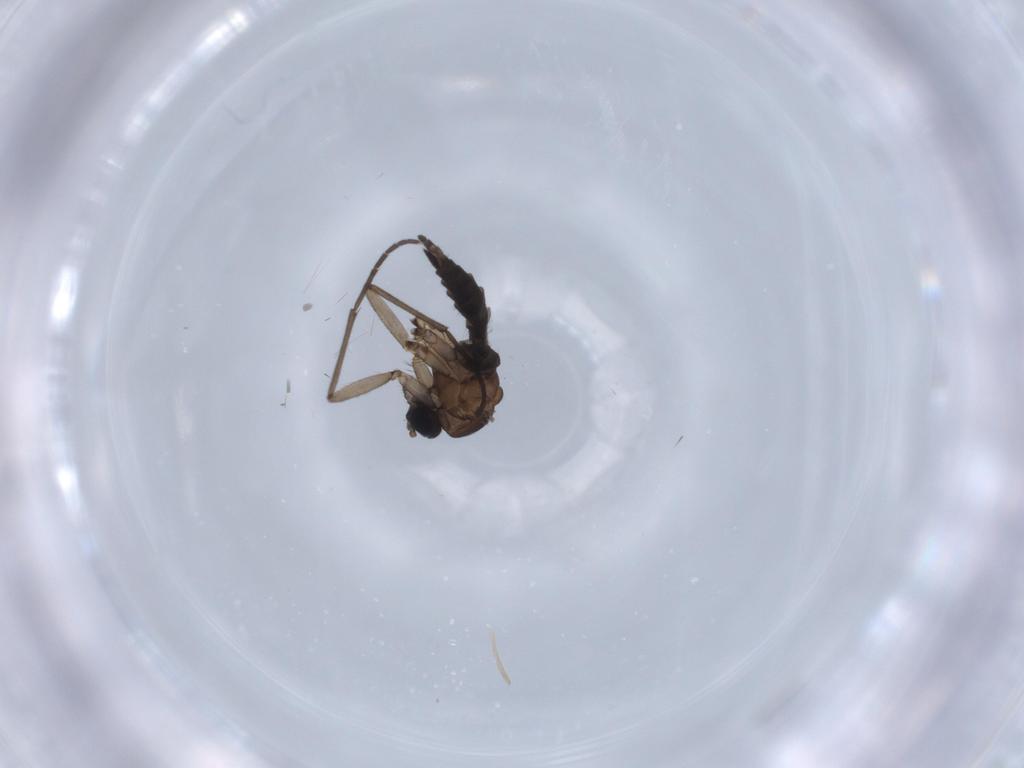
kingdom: Animalia
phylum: Arthropoda
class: Insecta
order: Diptera
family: Sciaridae
